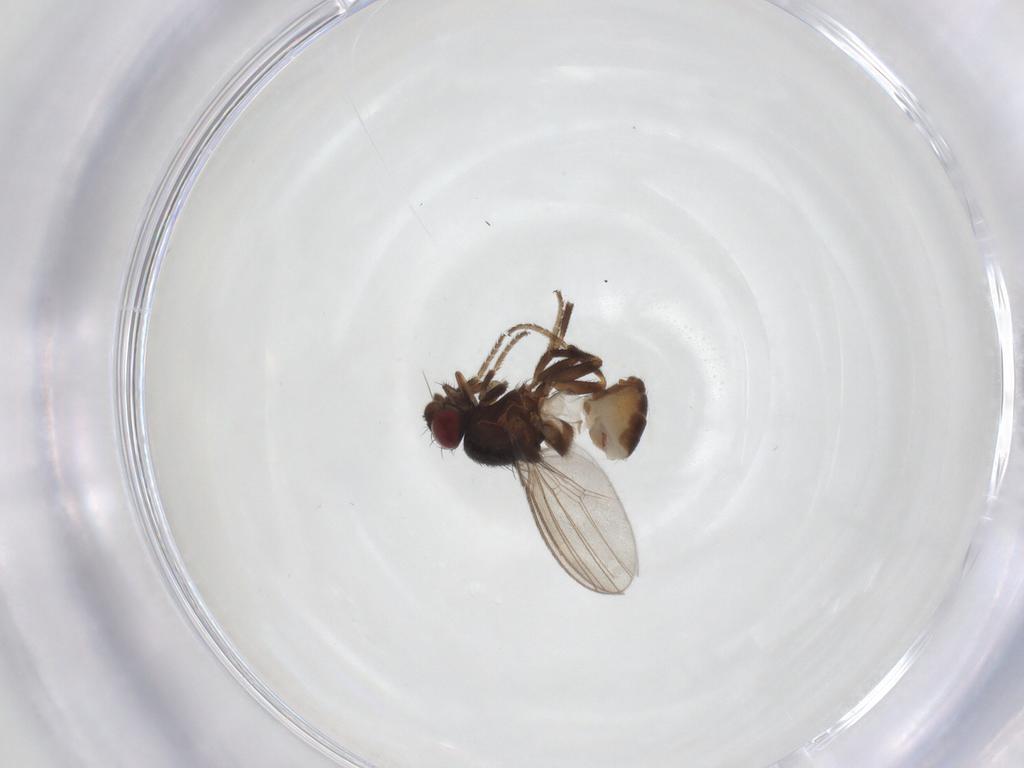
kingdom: Animalia
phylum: Arthropoda
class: Insecta
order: Diptera
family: Milichiidae
